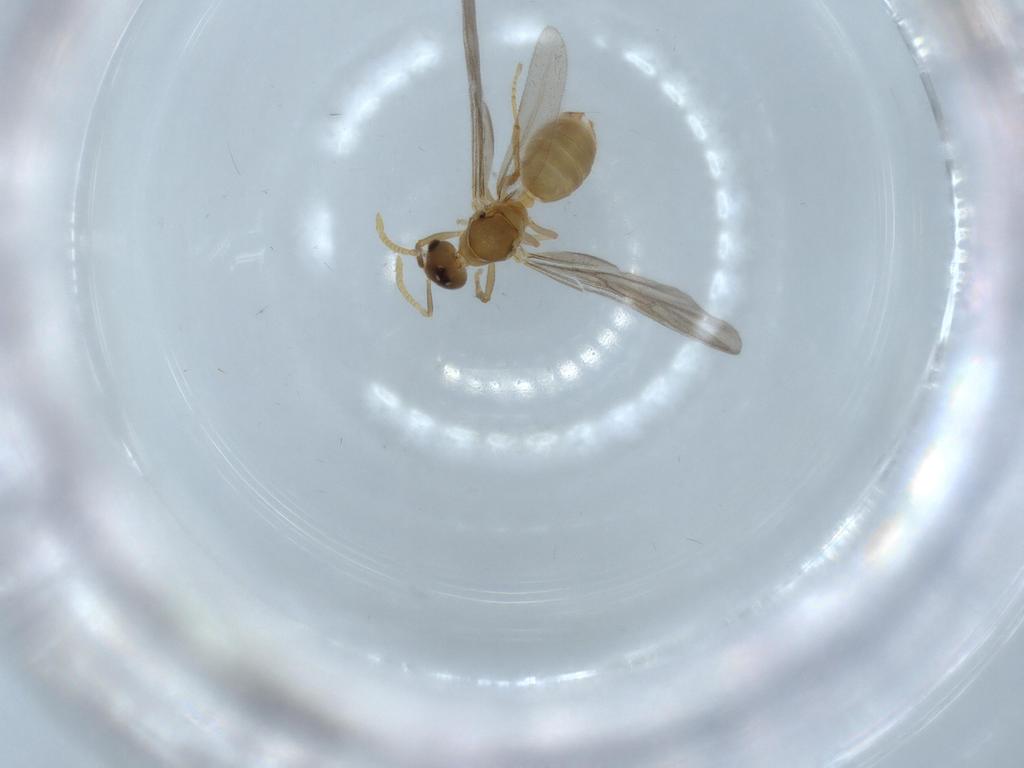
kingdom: Animalia
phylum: Arthropoda
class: Insecta
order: Hymenoptera
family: Formicidae
